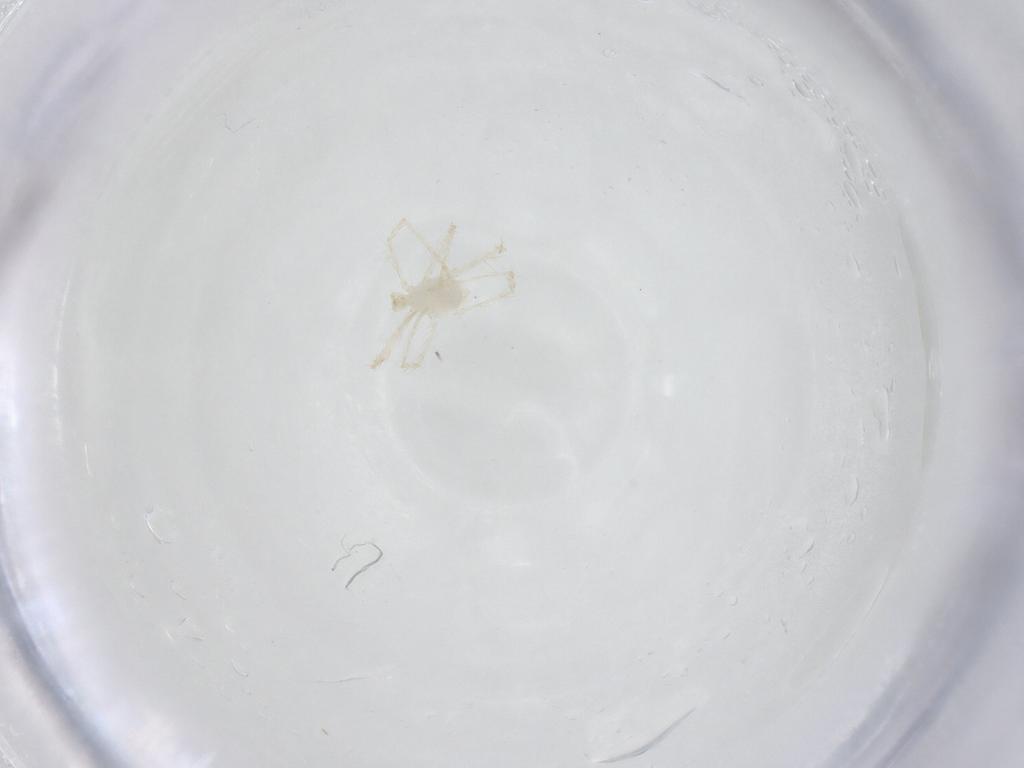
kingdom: Animalia
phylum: Arthropoda
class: Arachnida
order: Trombidiformes
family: Erythraeidae
